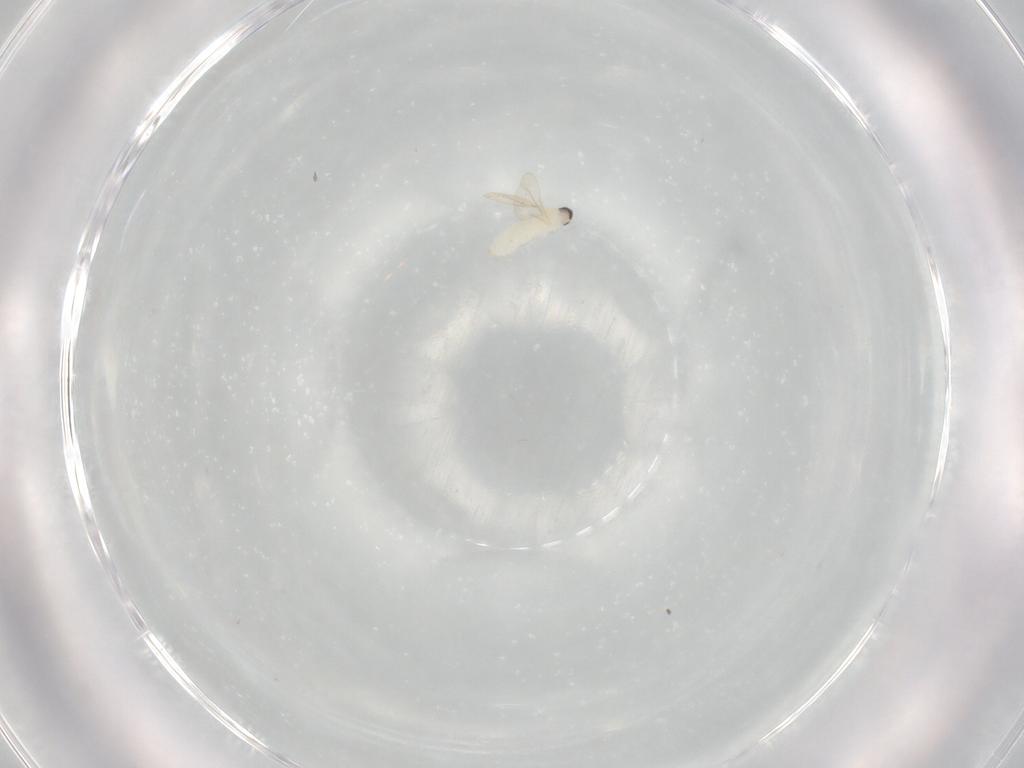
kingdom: Animalia
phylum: Arthropoda
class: Insecta
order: Diptera
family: Cecidomyiidae
